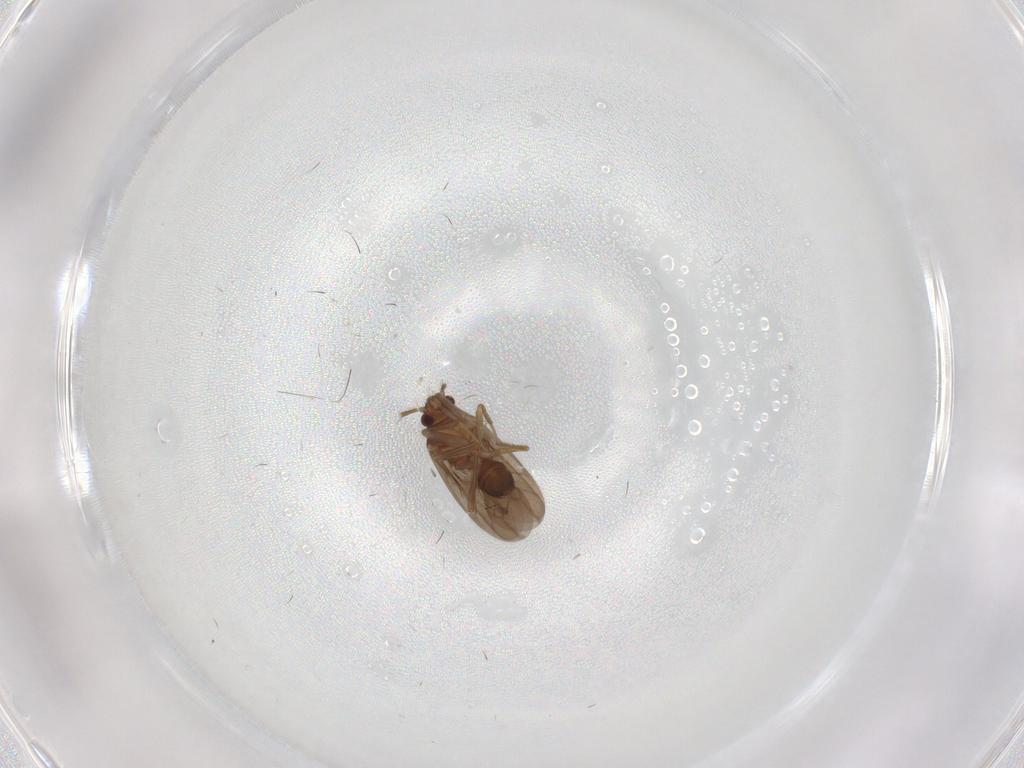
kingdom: Animalia
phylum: Arthropoda
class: Insecta
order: Hemiptera
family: Ceratocombidae
